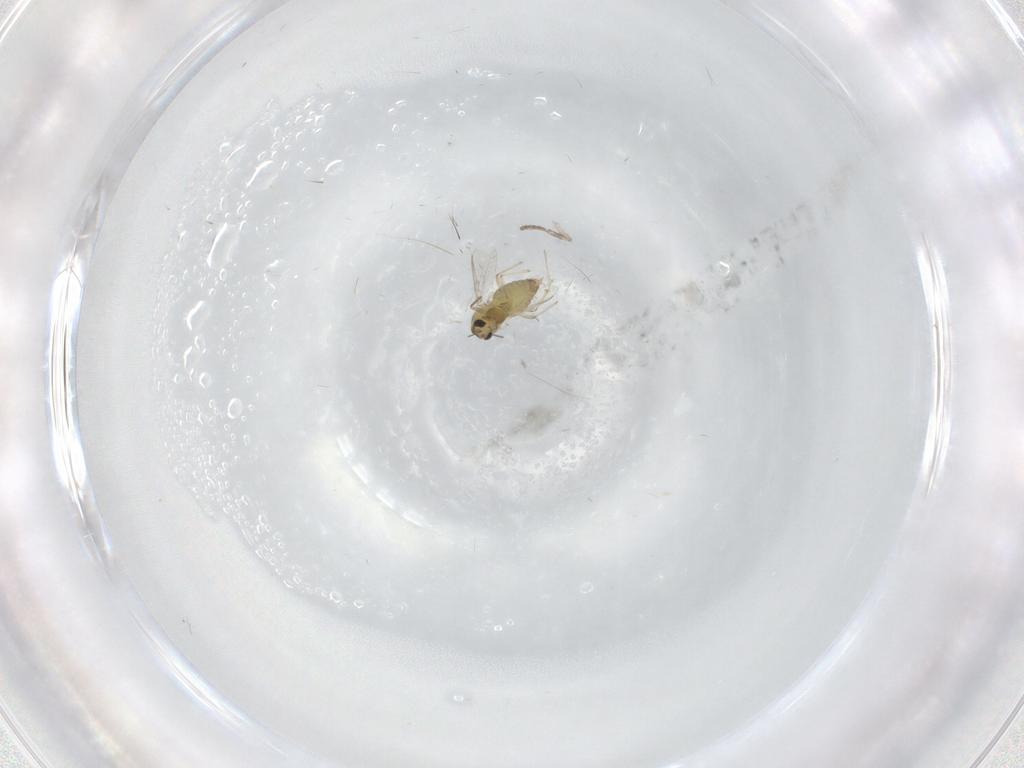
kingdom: Animalia
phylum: Arthropoda
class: Insecta
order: Diptera
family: Chironomidae
